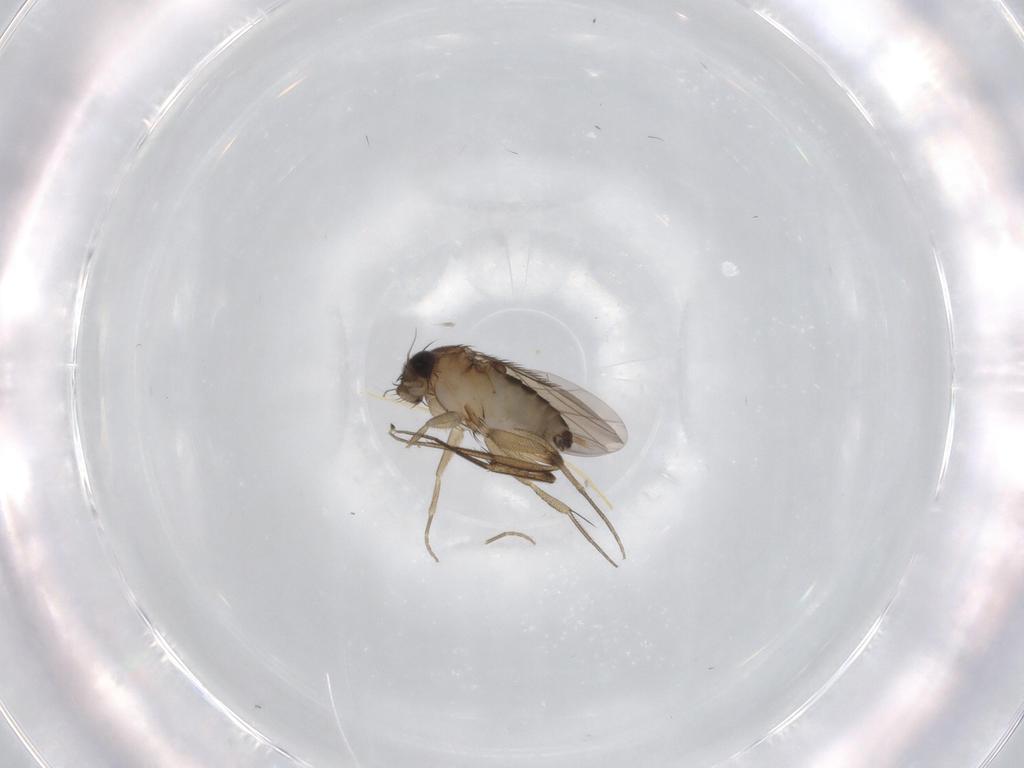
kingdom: Animalia
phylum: Arthropoda
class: Insecta
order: Diptera
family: Phoridae
